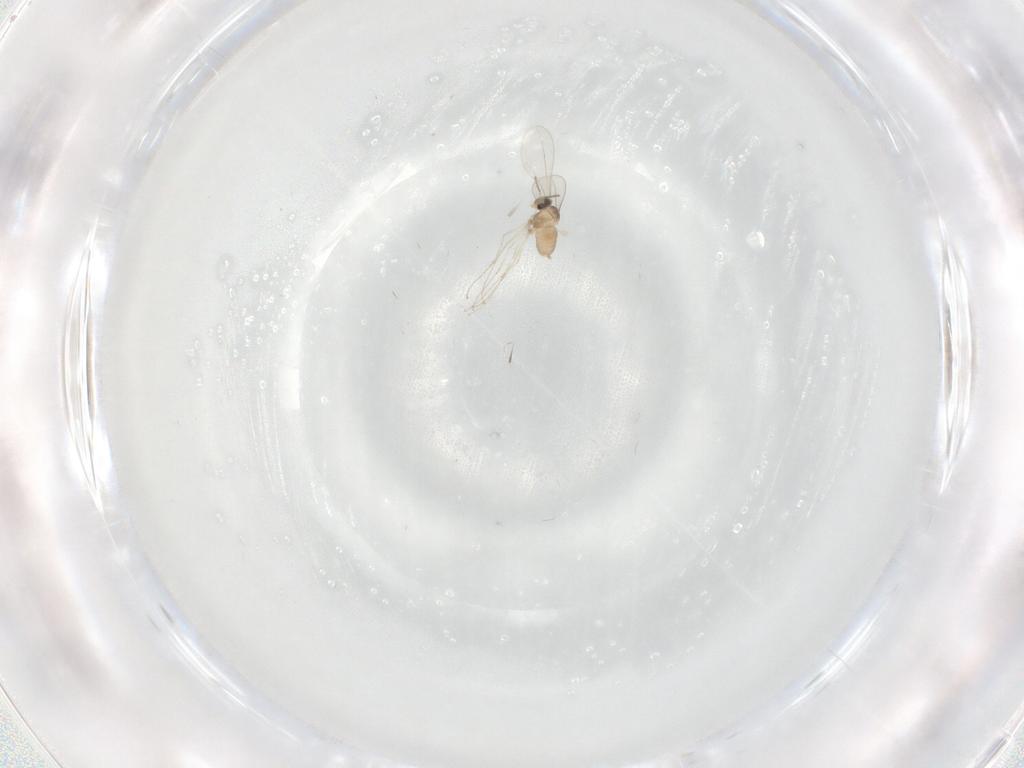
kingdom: Animalia
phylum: Arthropoda
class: Insecta
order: Diptera
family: Cecidomyiidae
